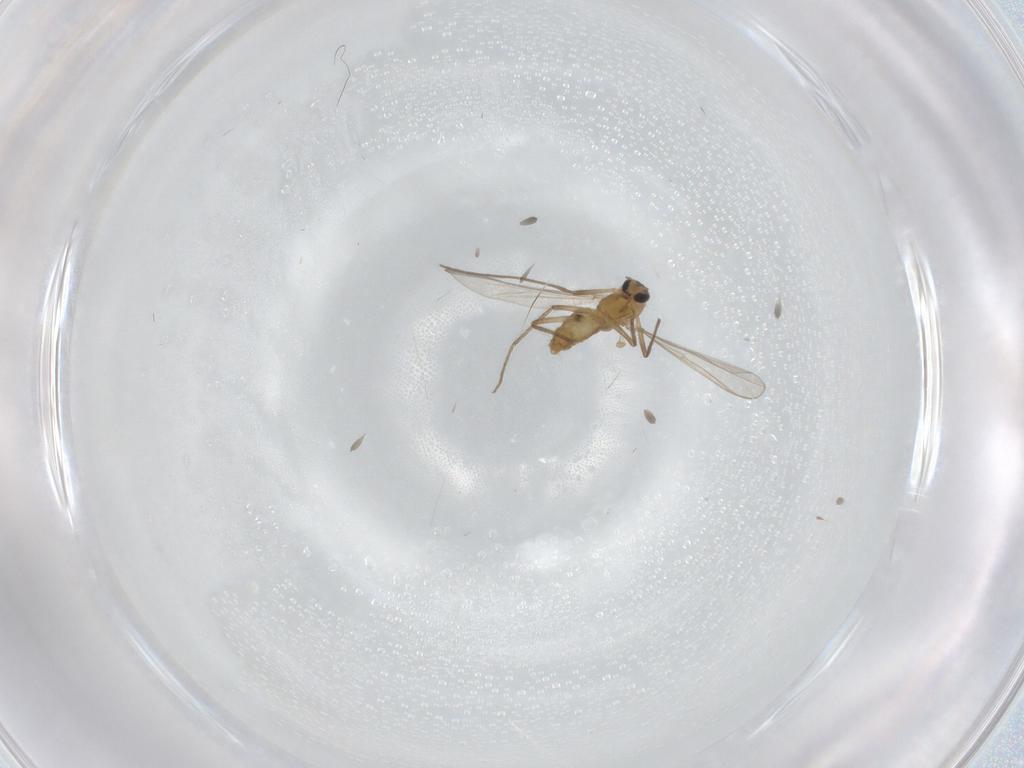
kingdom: Animalia
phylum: Arthropoda
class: Insecta
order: Diptera
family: Chironomidae
